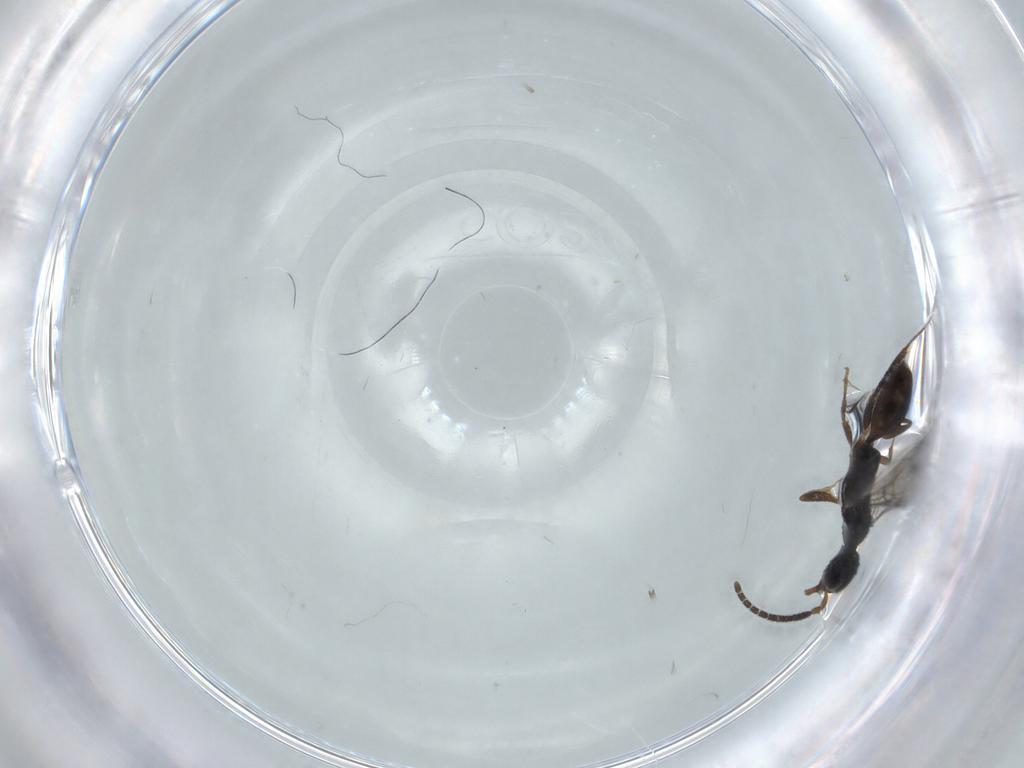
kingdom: Animalia
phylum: Arthropoda
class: Insecta
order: Hymenoptera
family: Bethylidae
